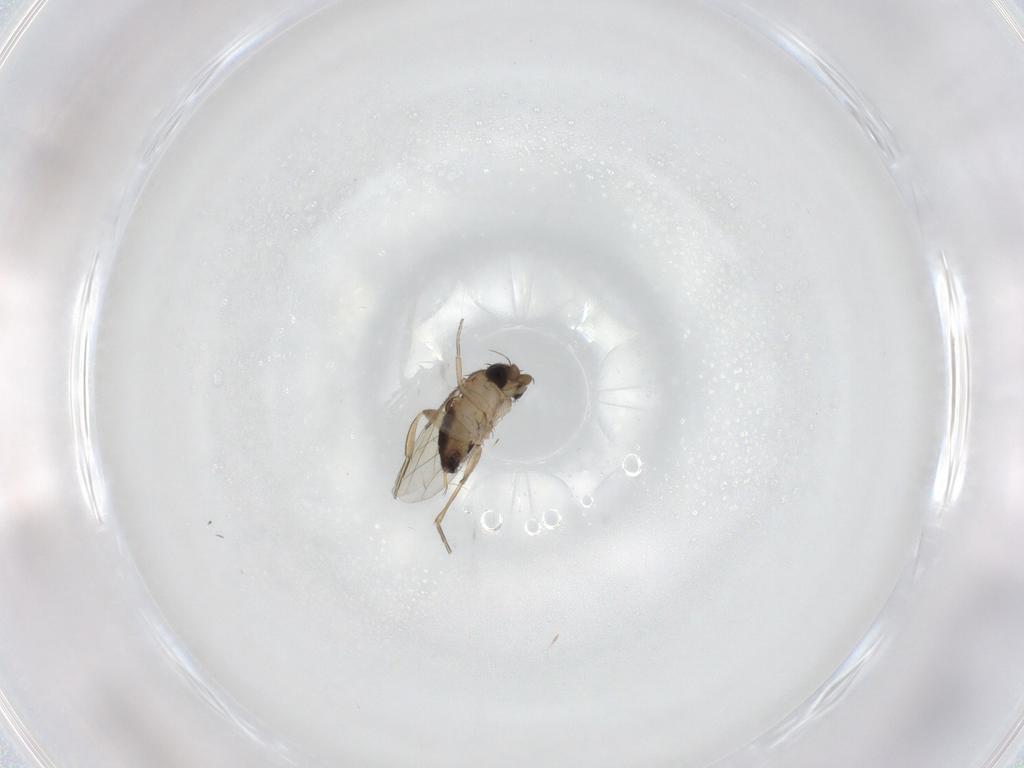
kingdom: Animalia
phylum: Arthropoda
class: Insecta
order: Diptera
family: Phoridae
